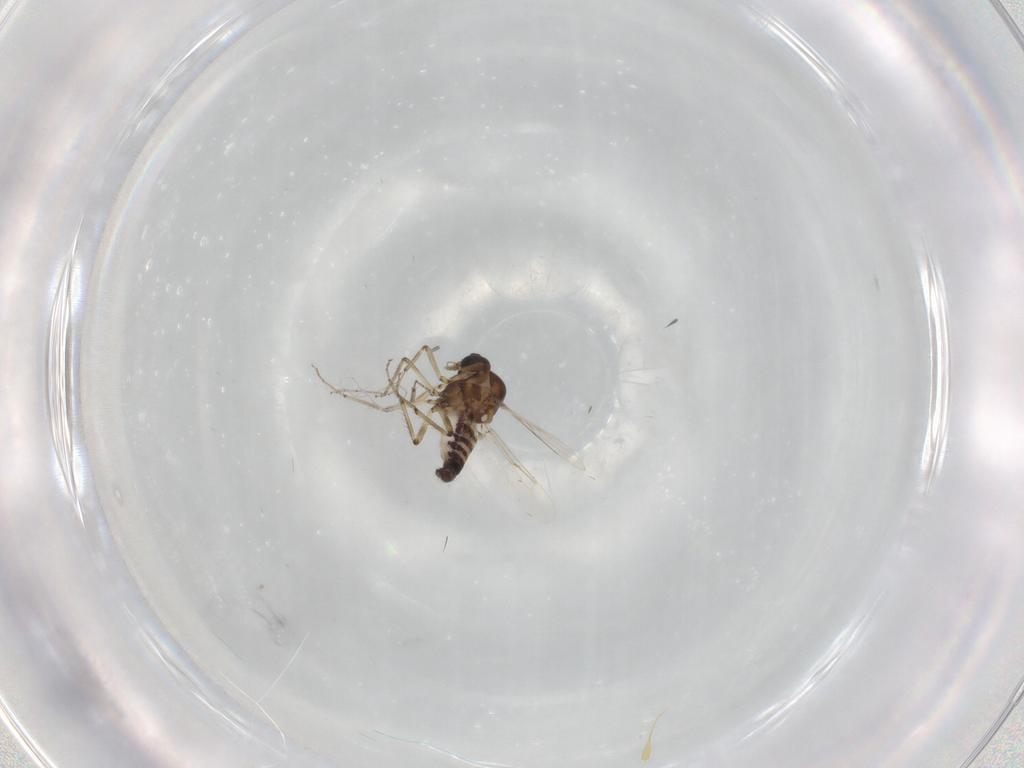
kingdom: Animalia
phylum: Arthropoda
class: Insecta
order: Diptera
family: Ceratopogonidae
